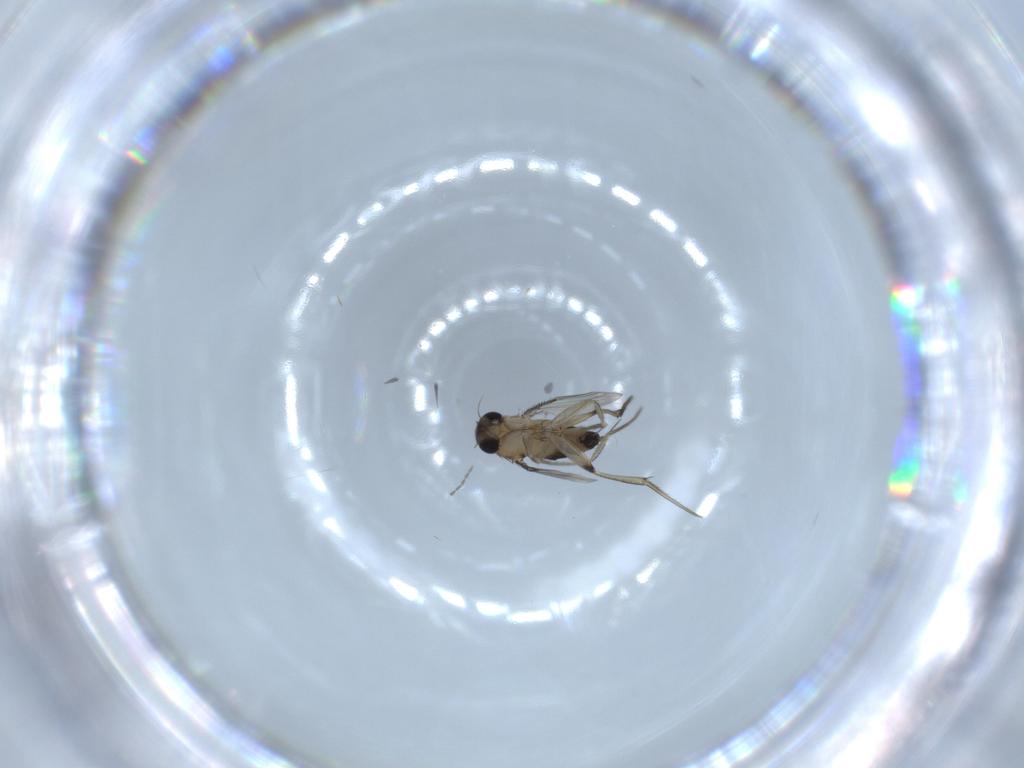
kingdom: Animalia
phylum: Arthropoda
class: Insecta
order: Diptera
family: Phoridae
